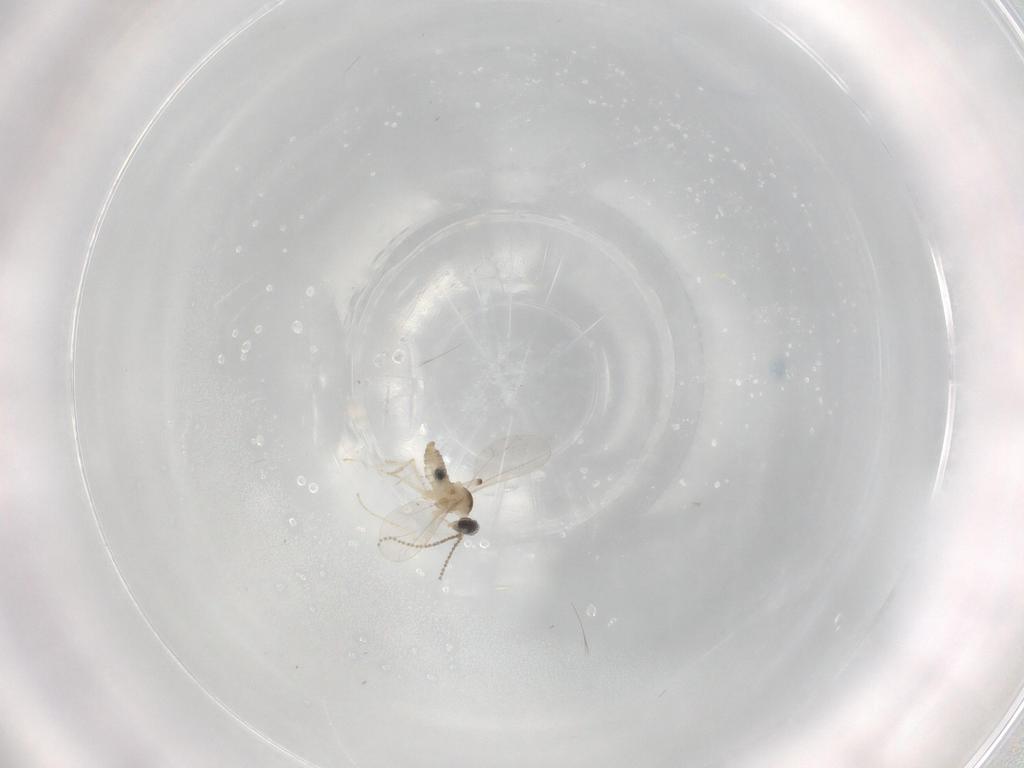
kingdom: Animalia
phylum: Arthropoda
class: Insecta
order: Diptera
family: Cecidomyiidae
